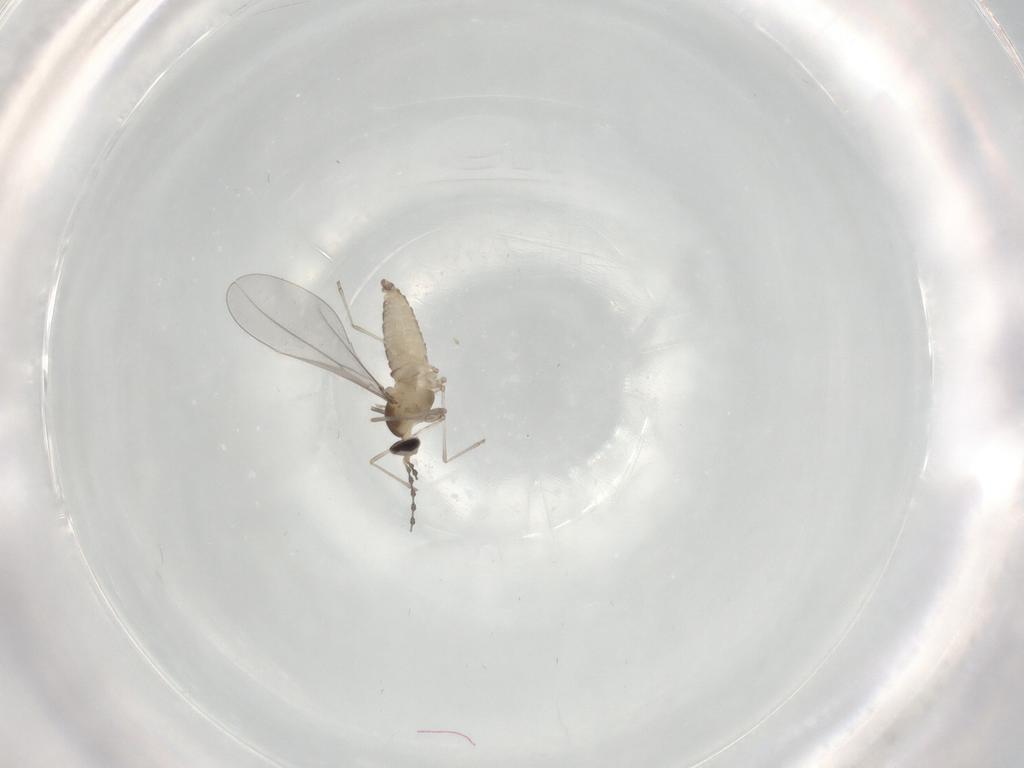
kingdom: Animalia
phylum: Arthropoda
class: Insecta
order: Diptera
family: Cecidomyiidae
